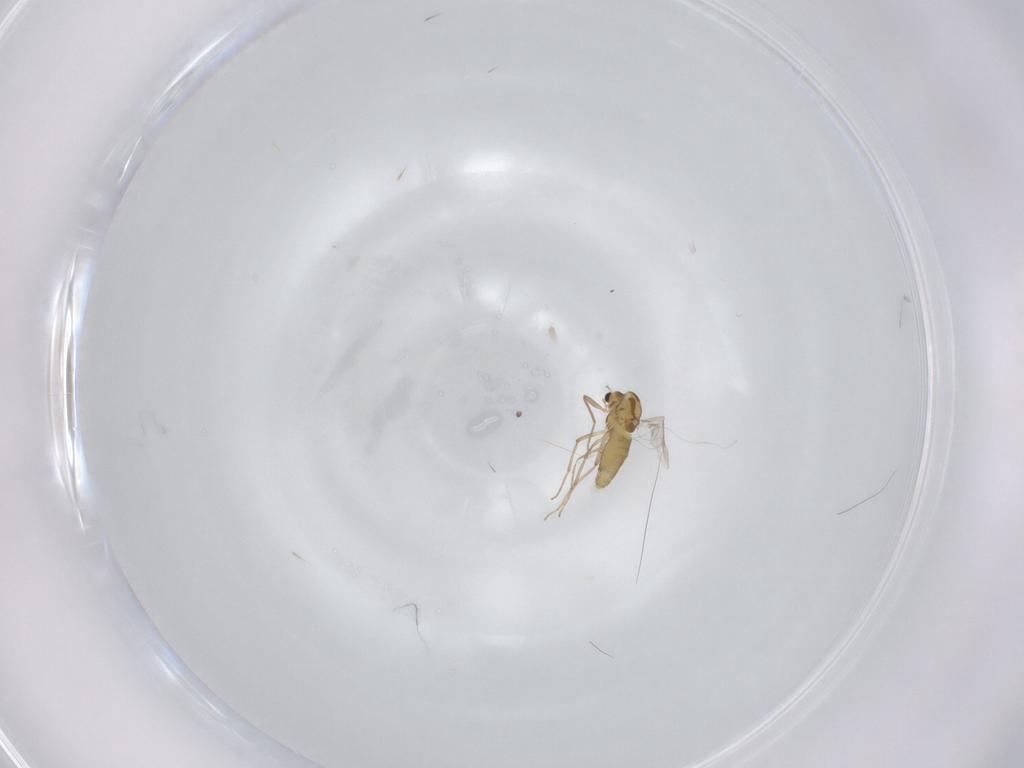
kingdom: Animalia
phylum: Arthropoda
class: Insecta
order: Diptera
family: Chironomidae
